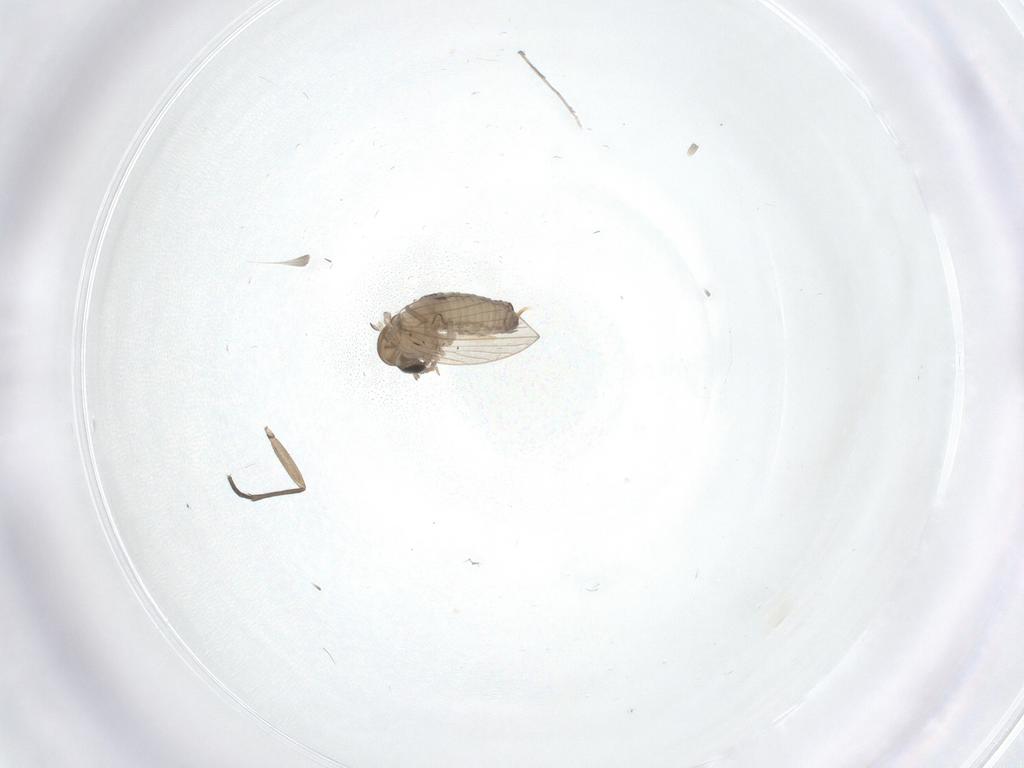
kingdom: Animalia
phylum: Arthropoda
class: Insecta
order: Diptera
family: Psychodidae
